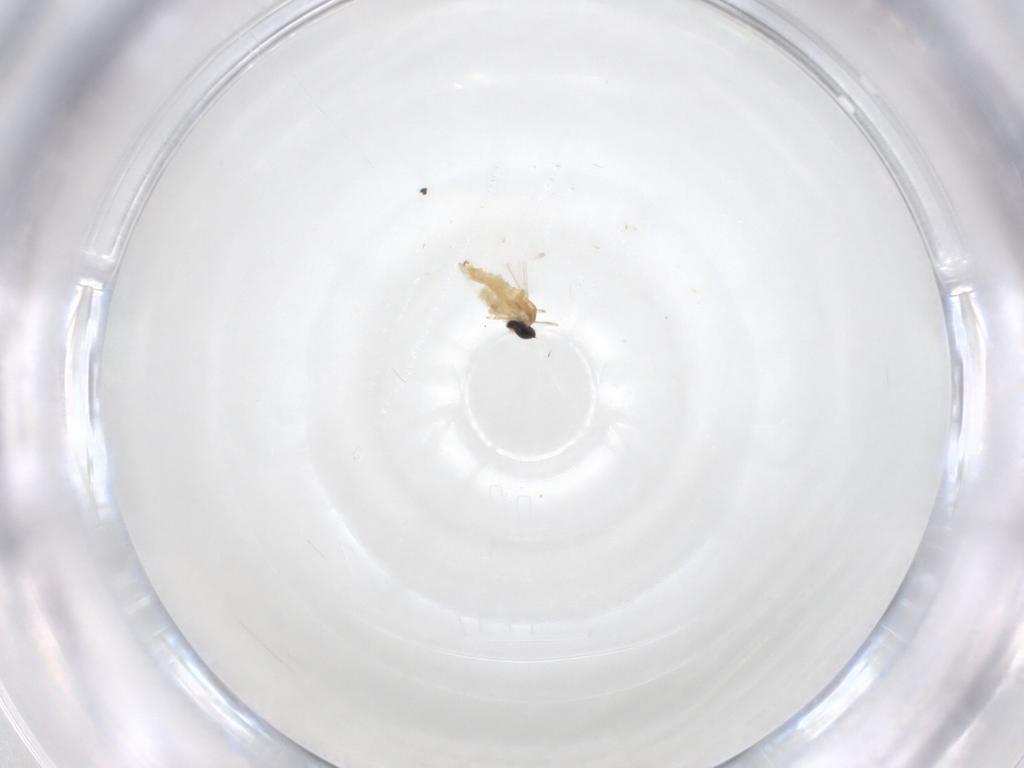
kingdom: Animalia
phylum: Arthropoda
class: Insecta
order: Diptera
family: Cecidomyiidae
